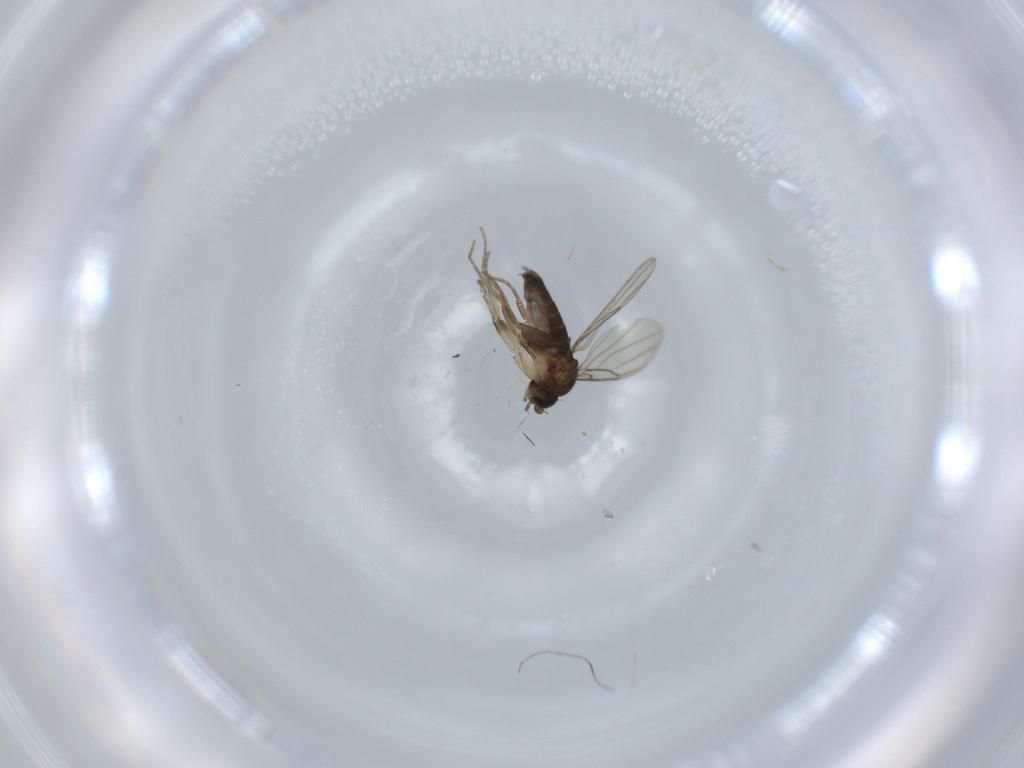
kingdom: Animalia
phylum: Arthropoda
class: Insecta
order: Diptera
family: Phoridae
